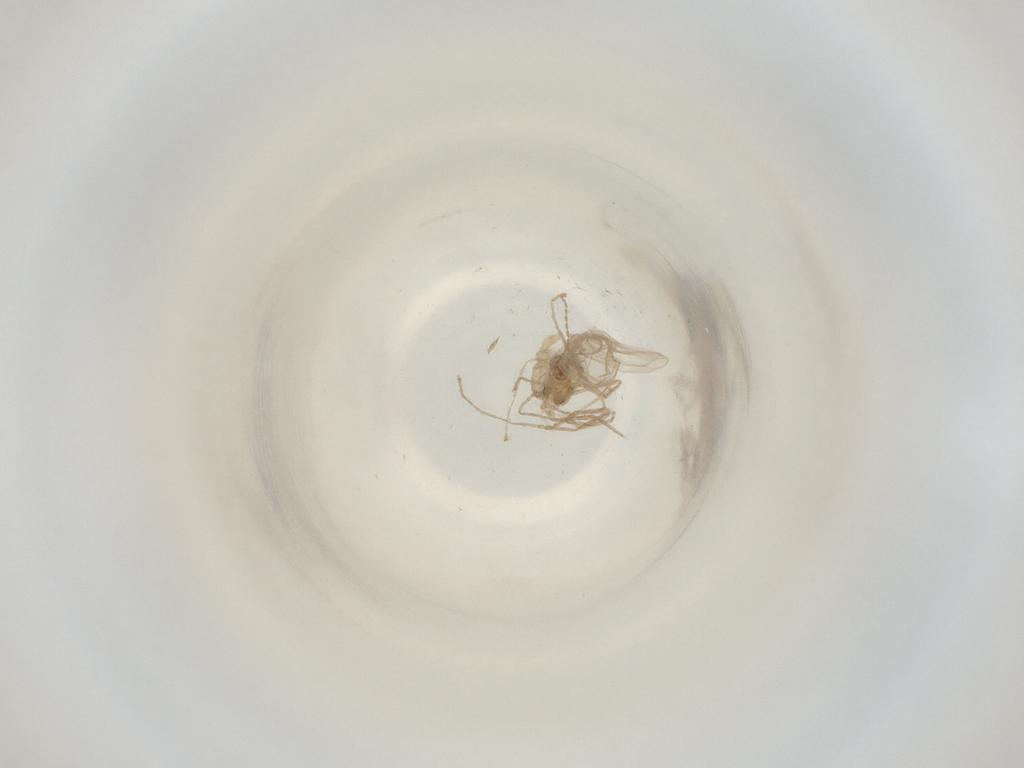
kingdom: Animalia
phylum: Arthropoda
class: Insecta
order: Diptera
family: Cecidomyiidae
